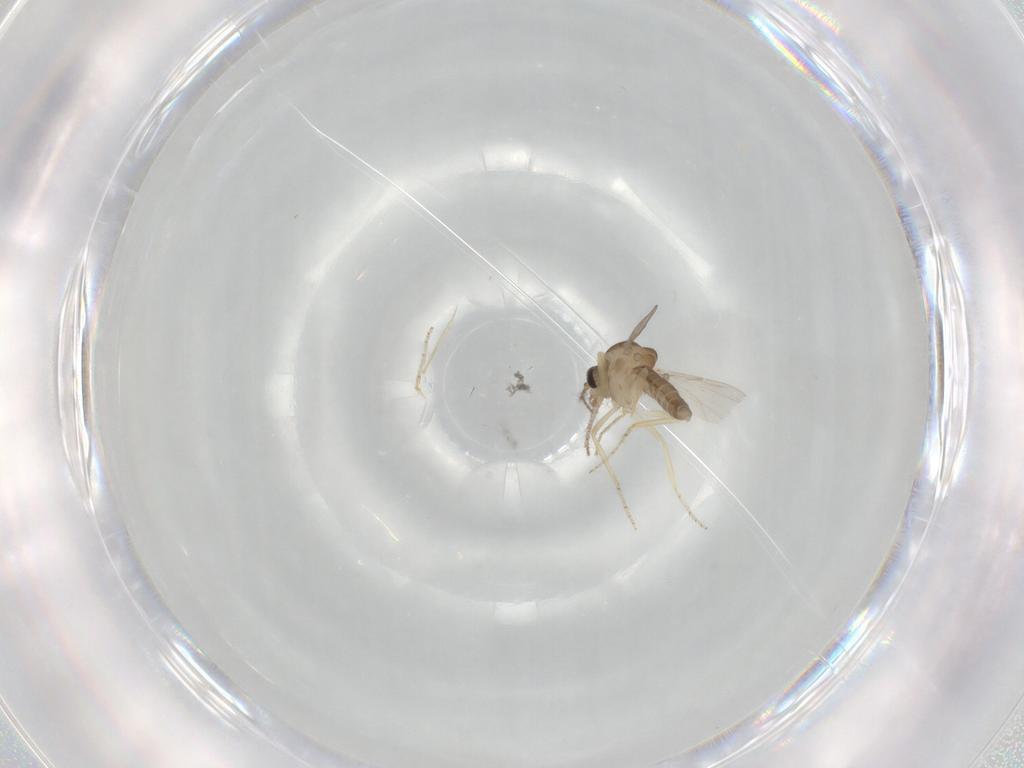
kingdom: Animalia
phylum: Arthropoda
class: Insecta
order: Diptera
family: Ceratopogonidae
